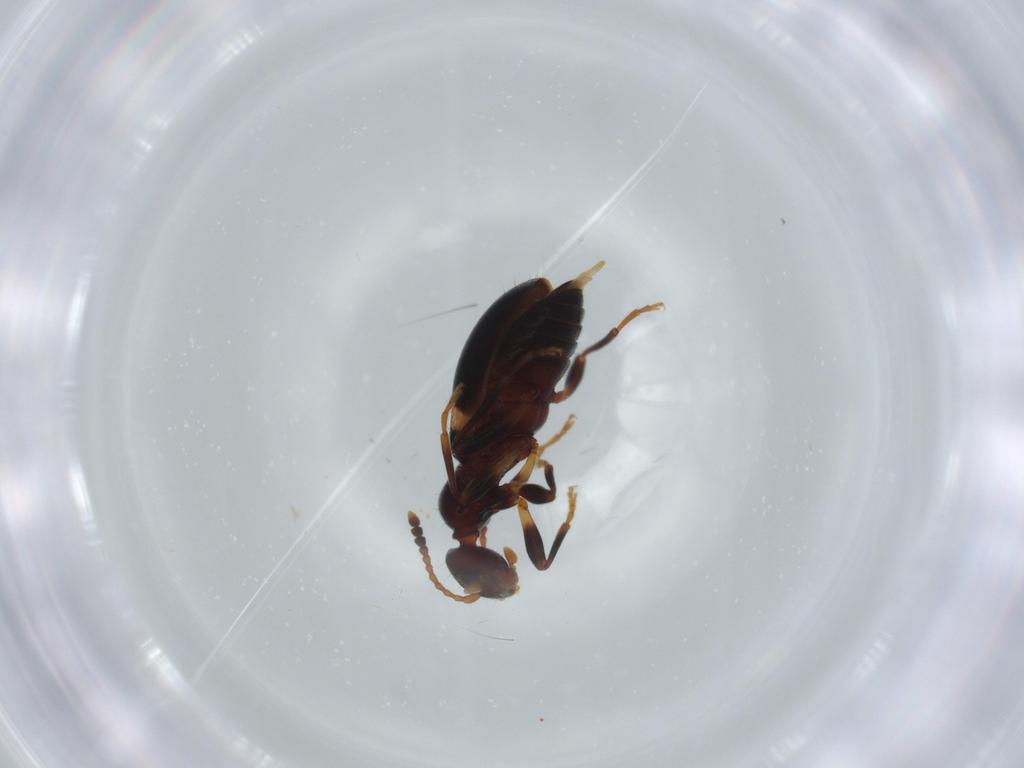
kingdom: Animalia
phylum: Arthropoda
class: Insecta
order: Coleoptera
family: Anthicidae
